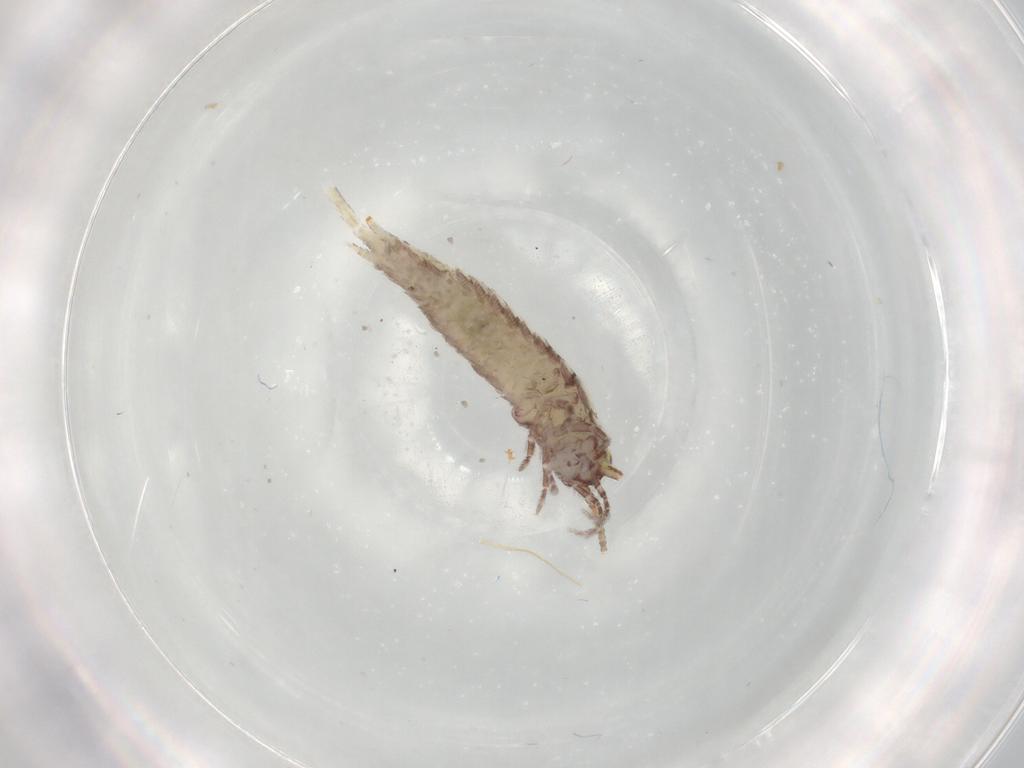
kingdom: Animalia
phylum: Arthropoda
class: Insecta
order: Archaeognatha
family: Machilidae
